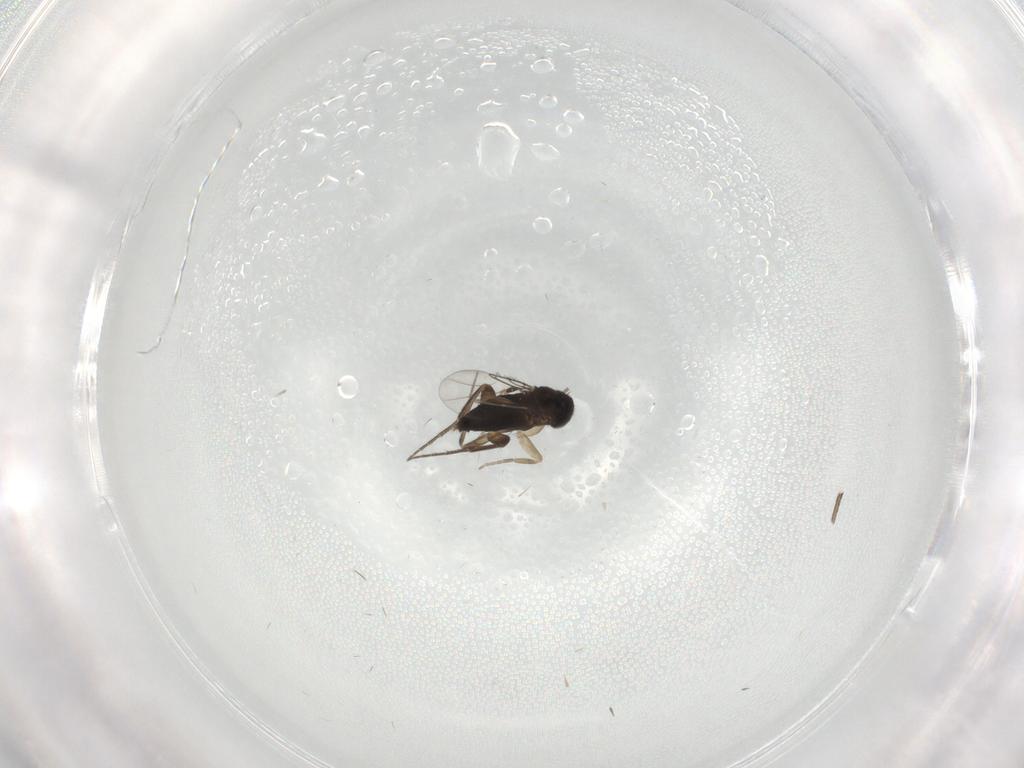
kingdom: Animalia
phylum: Arthropoda
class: Insecta
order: Diptera
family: Cecidomyiidae
